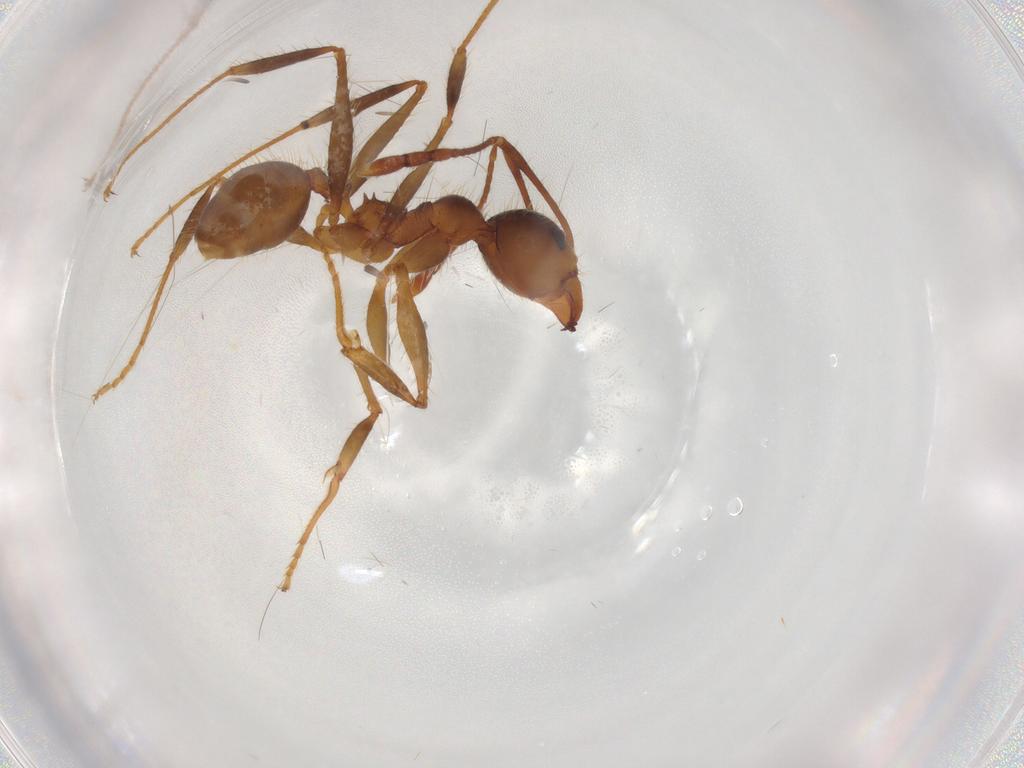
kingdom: Animalia
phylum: Arthropoda
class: Insecta
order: Hymenoptera
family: Formicidae
